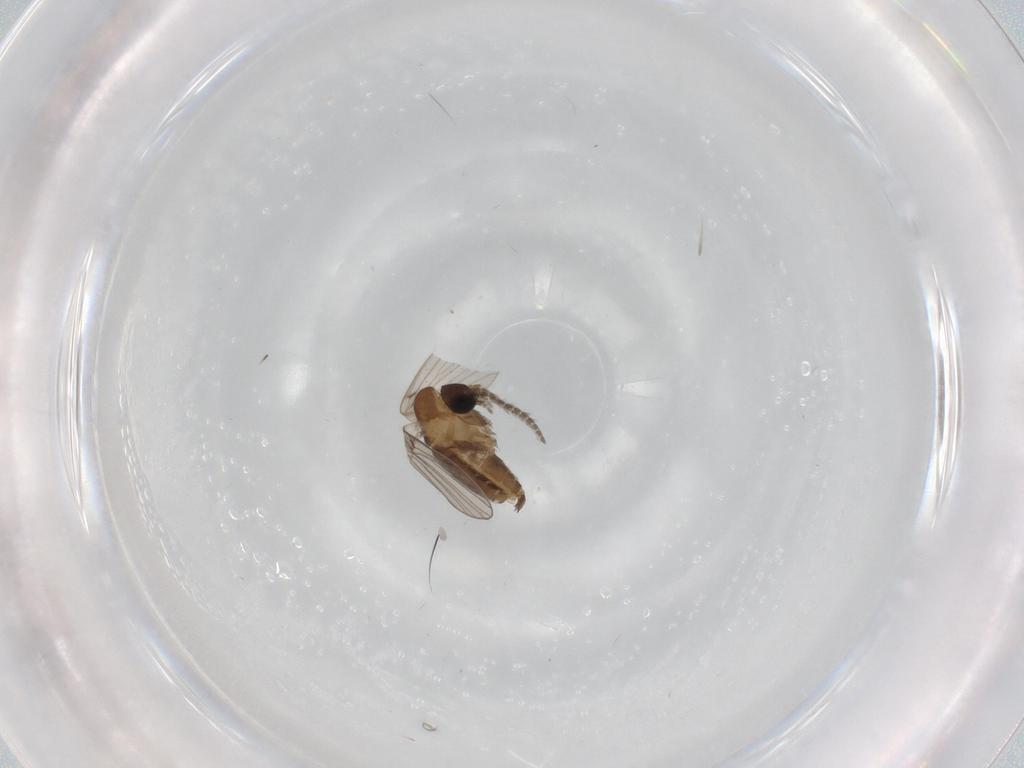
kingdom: Animalia
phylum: Arthropoda
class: Insecta
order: Diptera
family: Psychodidae
